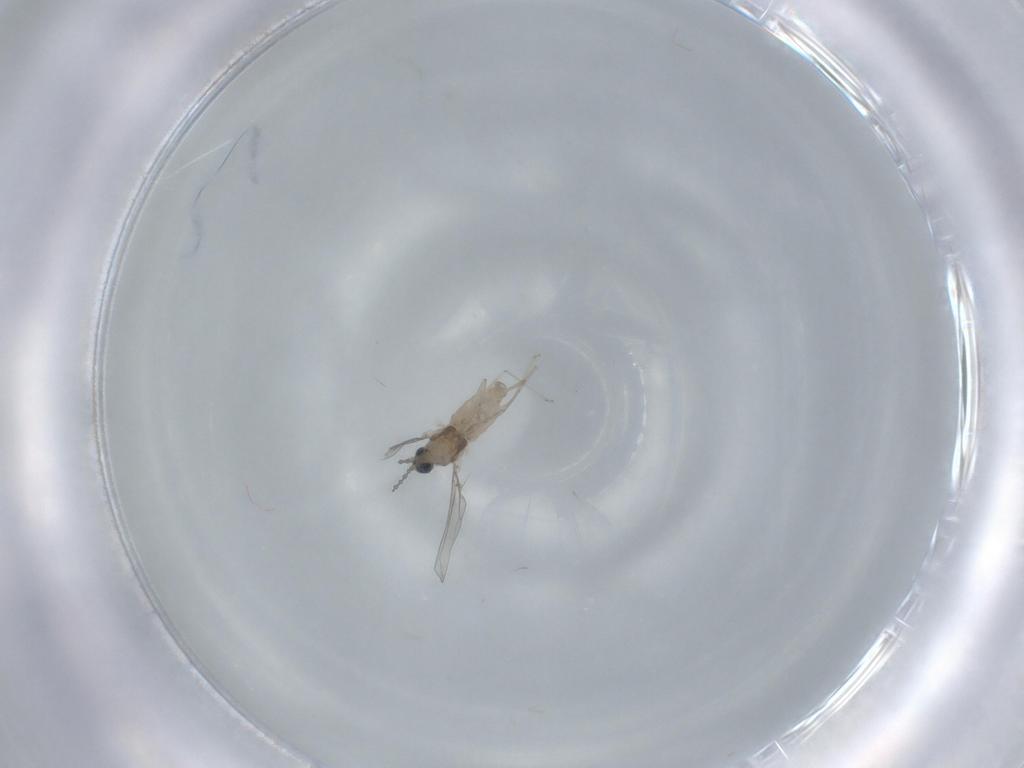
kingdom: Animalia
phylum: Arthropoda
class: Insecta
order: Diptera
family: Cecidomyiidae
